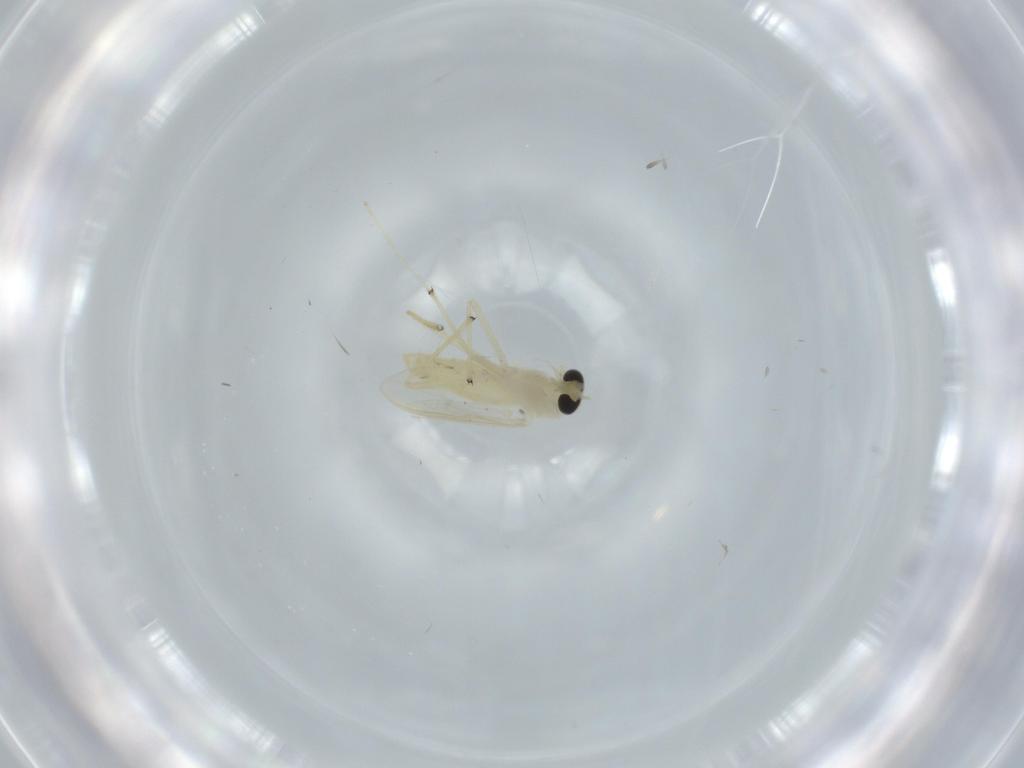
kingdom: Animalia
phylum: Arthropoda
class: Insecta
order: Diptera
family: Chironomidae
